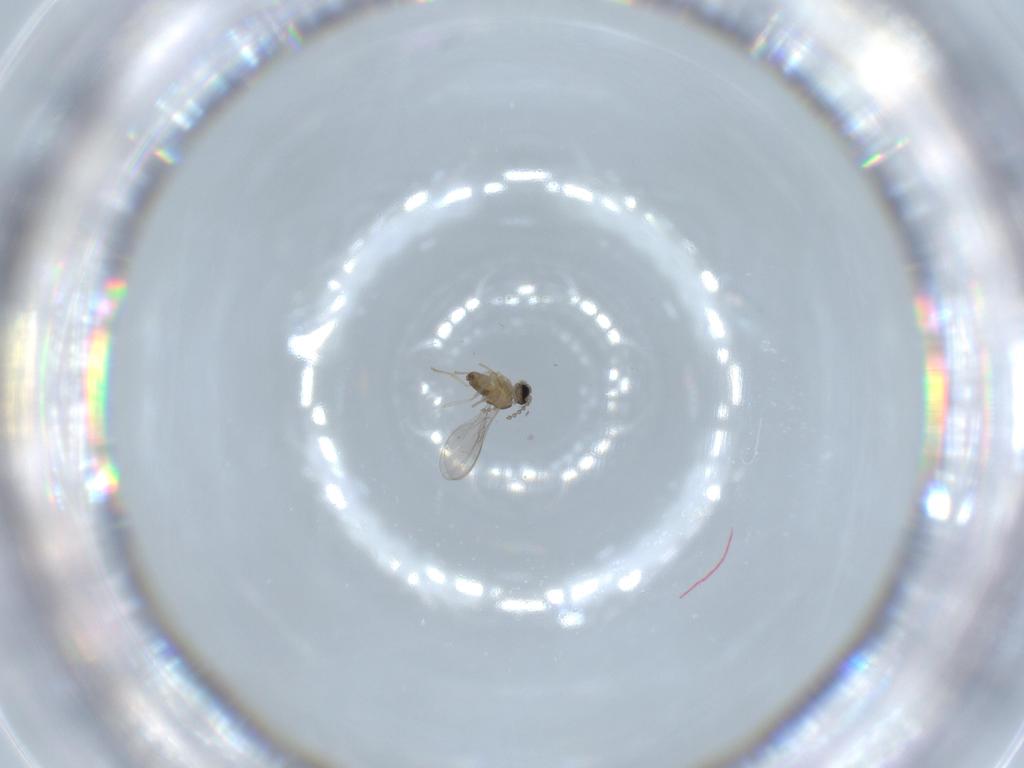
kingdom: Animalia
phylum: Arthropoda
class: Insecta
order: Diptera
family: Cecidomyiidae
